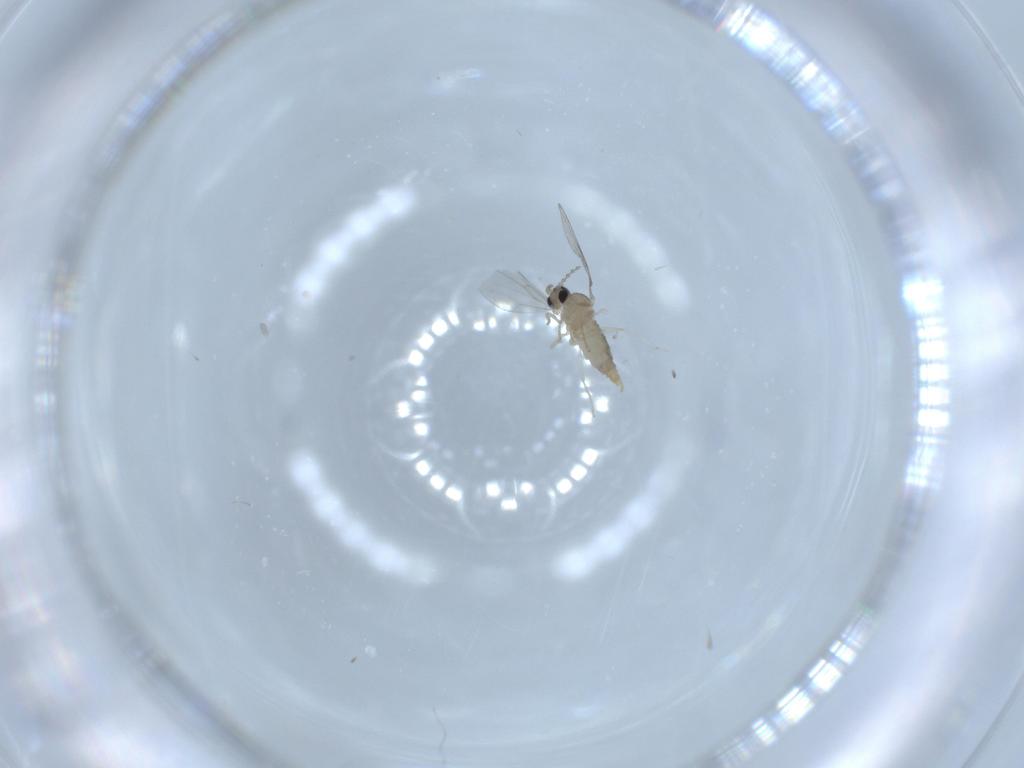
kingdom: Animalia
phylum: Arthropoda
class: Insecta
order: Diptera
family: Cecidomyiidae
